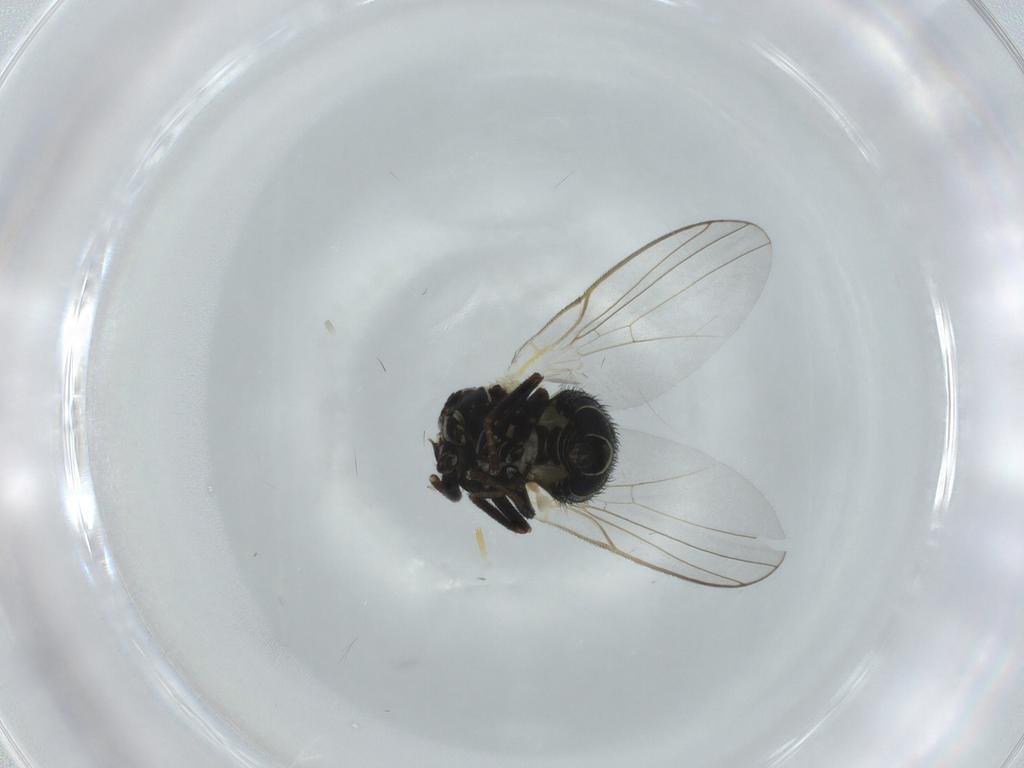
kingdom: Animalia
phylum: Arthropoda
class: Insecta
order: Diptera
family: Agromyzidae
